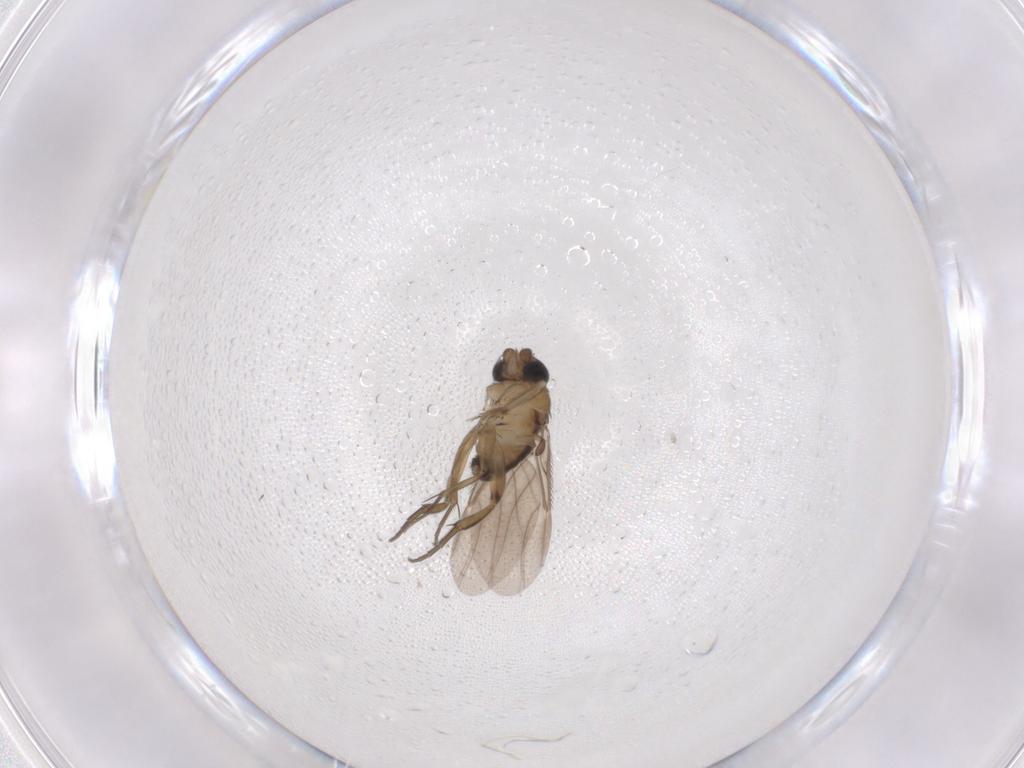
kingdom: Animalia
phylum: Arthropoda
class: Insecta
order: Diptera
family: Phoridae
